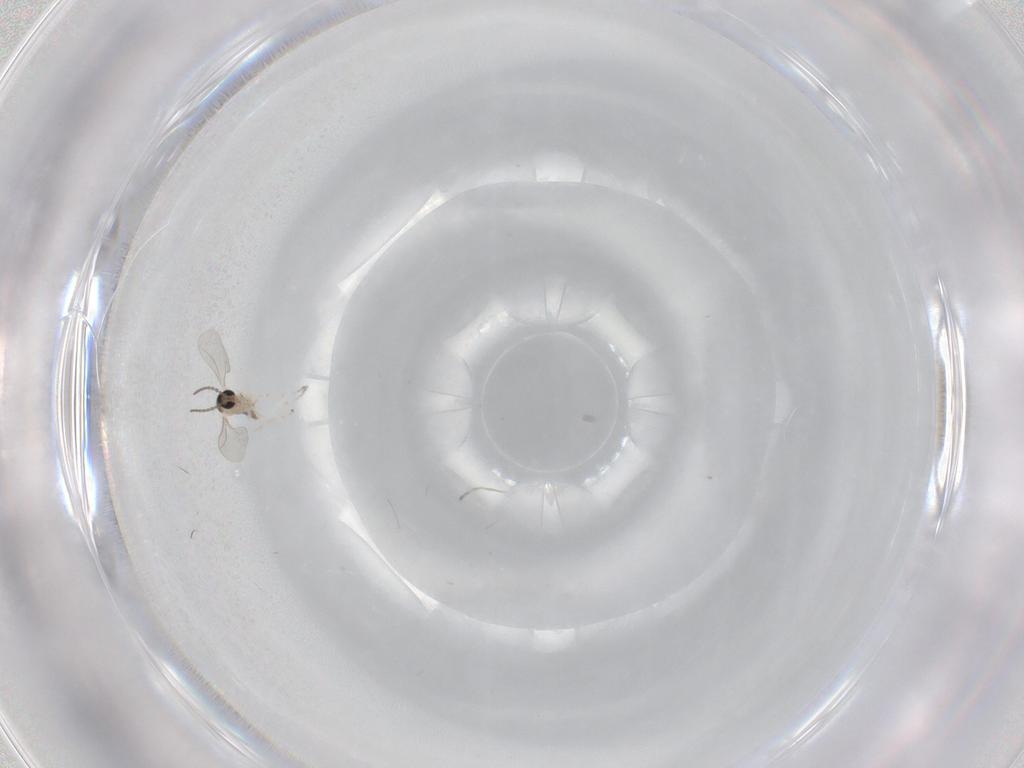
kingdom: Animalia
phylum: Arthropoda
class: Insecta
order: Diptera
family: Cecidomyiidae
